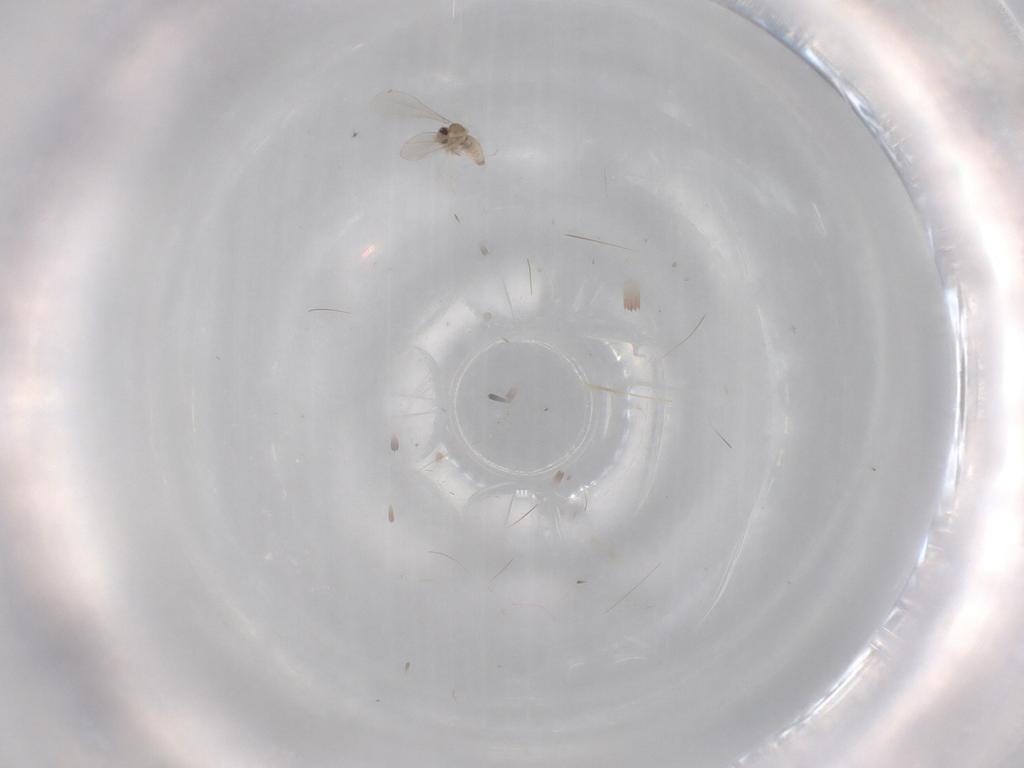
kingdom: Animalia
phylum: Arthropoda
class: Insecta
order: Diptera
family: Cecidomyiidae
